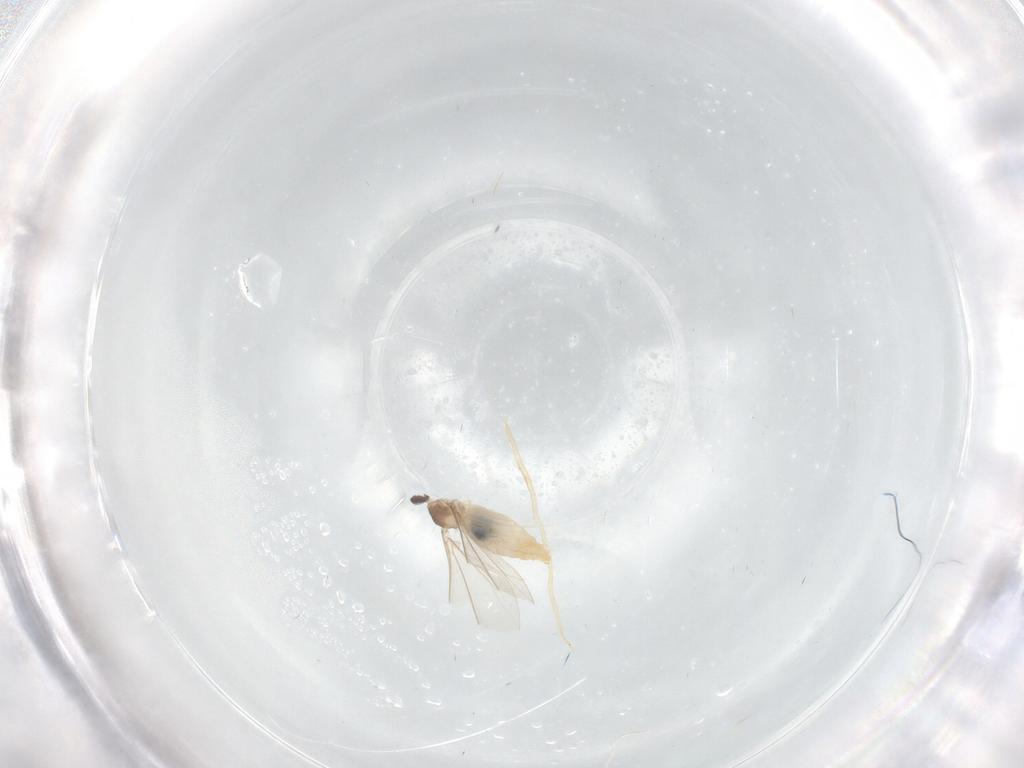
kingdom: Animalia
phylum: Arthropoda
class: Insecta
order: Diptera
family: Cecidomyiidae
